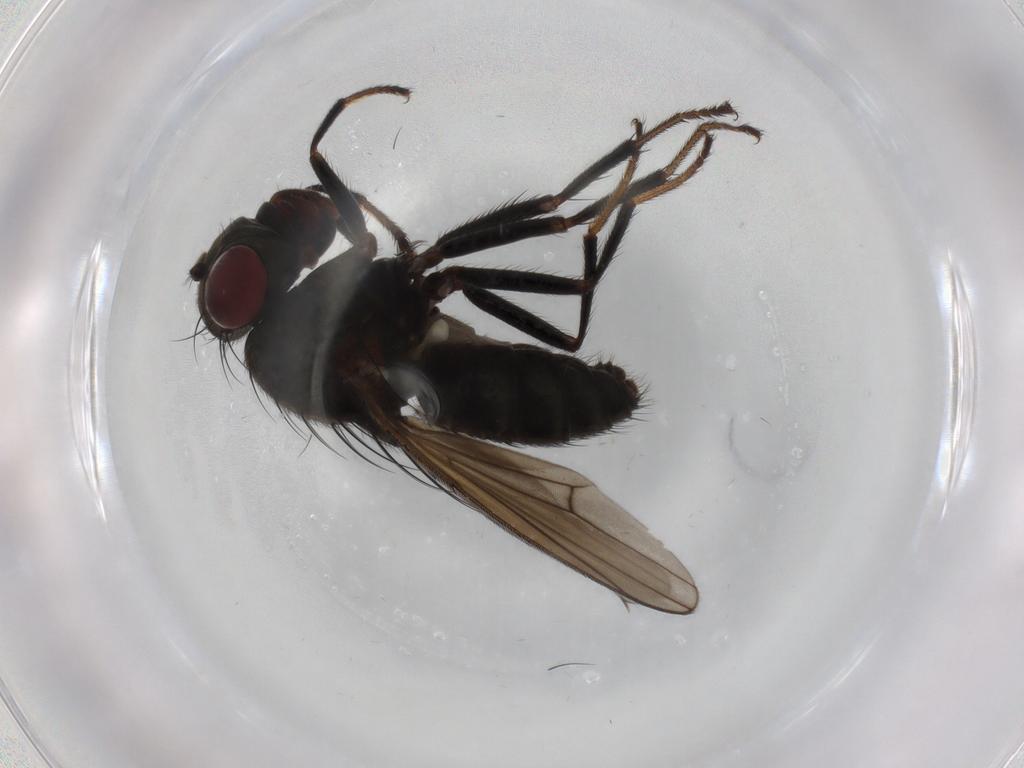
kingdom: Animalia
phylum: Arthropoda
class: Insecta
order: Diptera
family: Ephydridae
